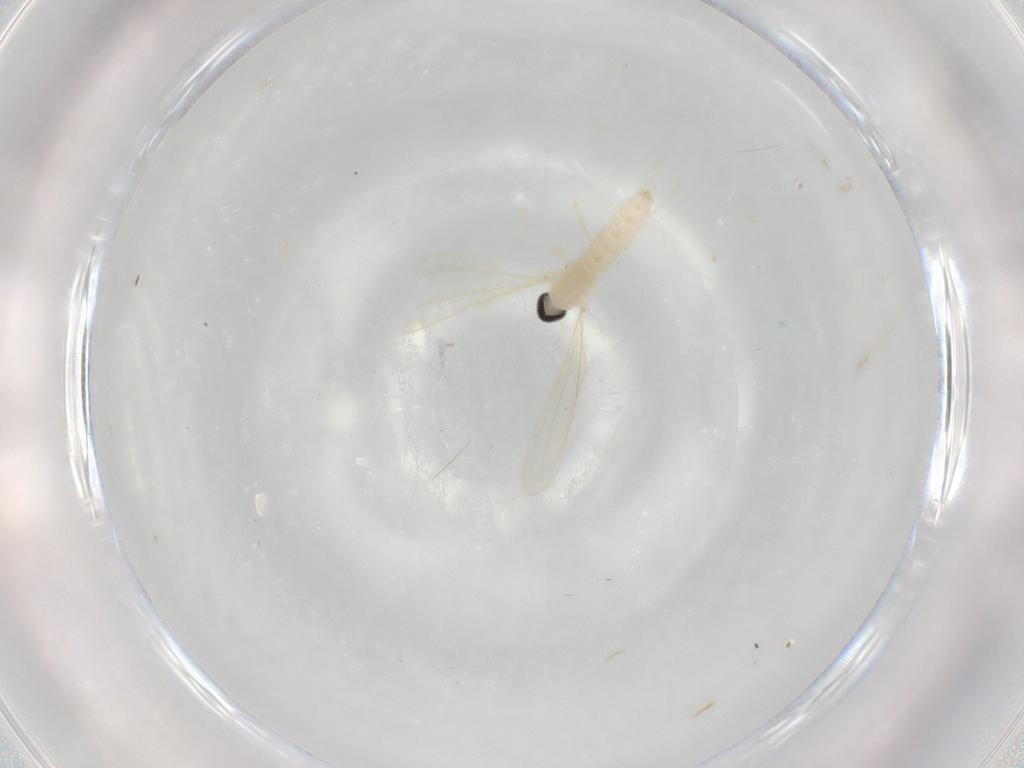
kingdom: Animalia
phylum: Arthropoda
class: Insecta
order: Diptera
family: Cecidomyiidae
